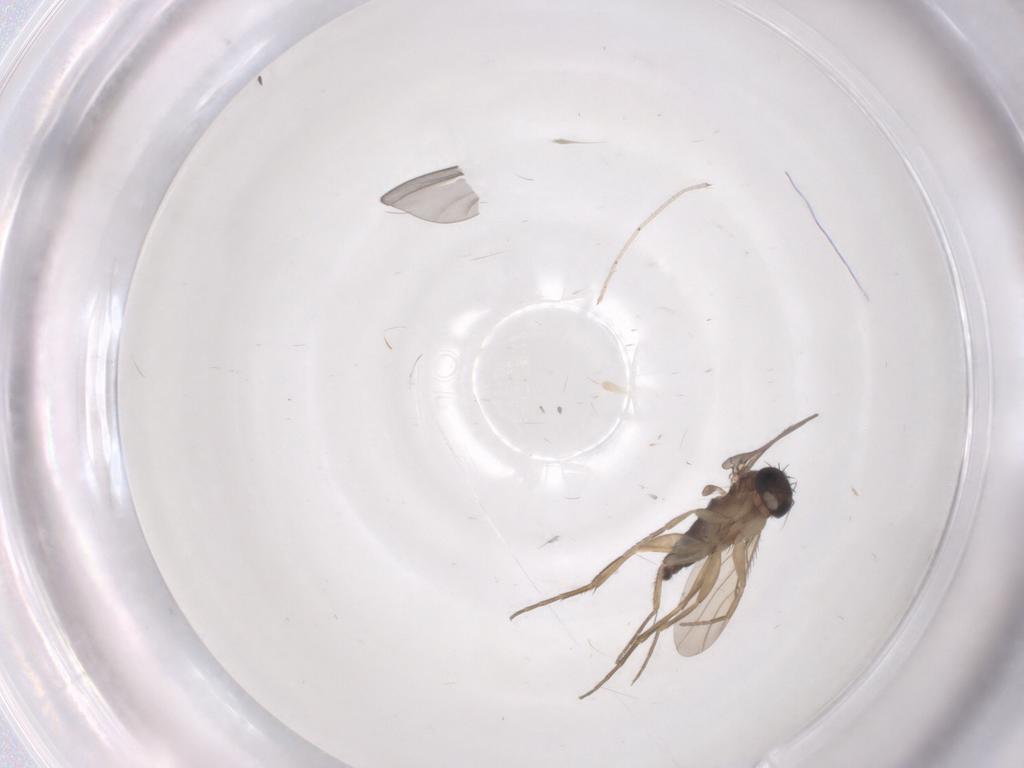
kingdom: Animalia
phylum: Arthropoda
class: Insecta
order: Diptera
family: Cecidomyiidae
